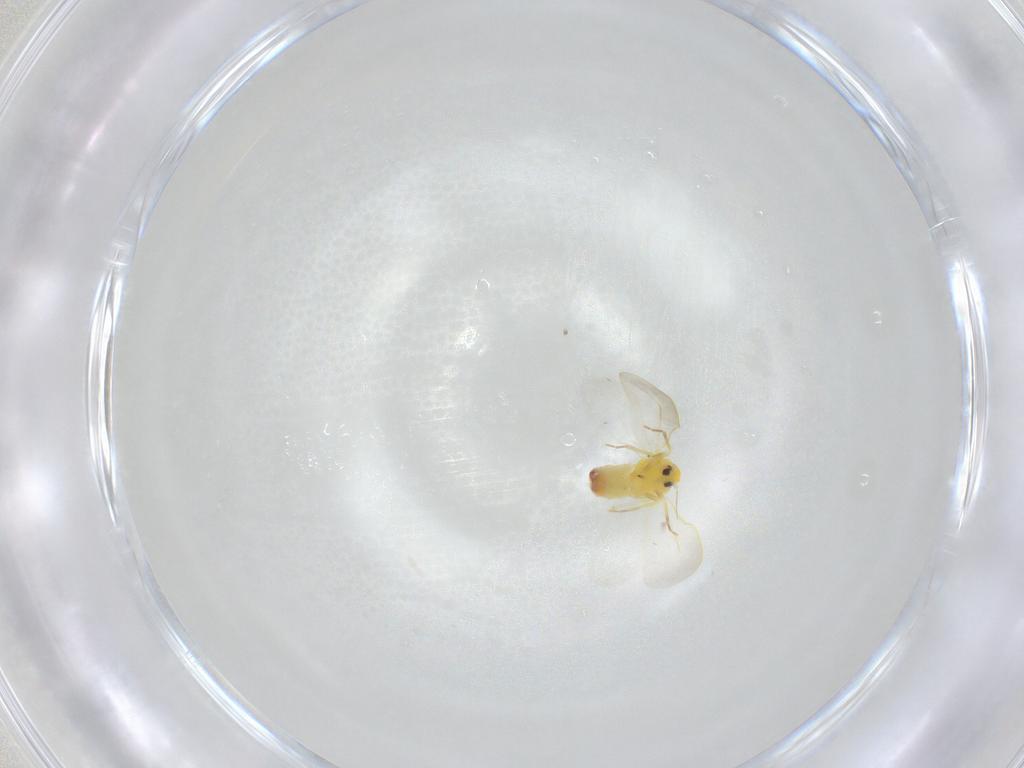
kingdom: Animalia
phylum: Arthropoda
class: Insecta
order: Hemiptera
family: Aleyrodidae
